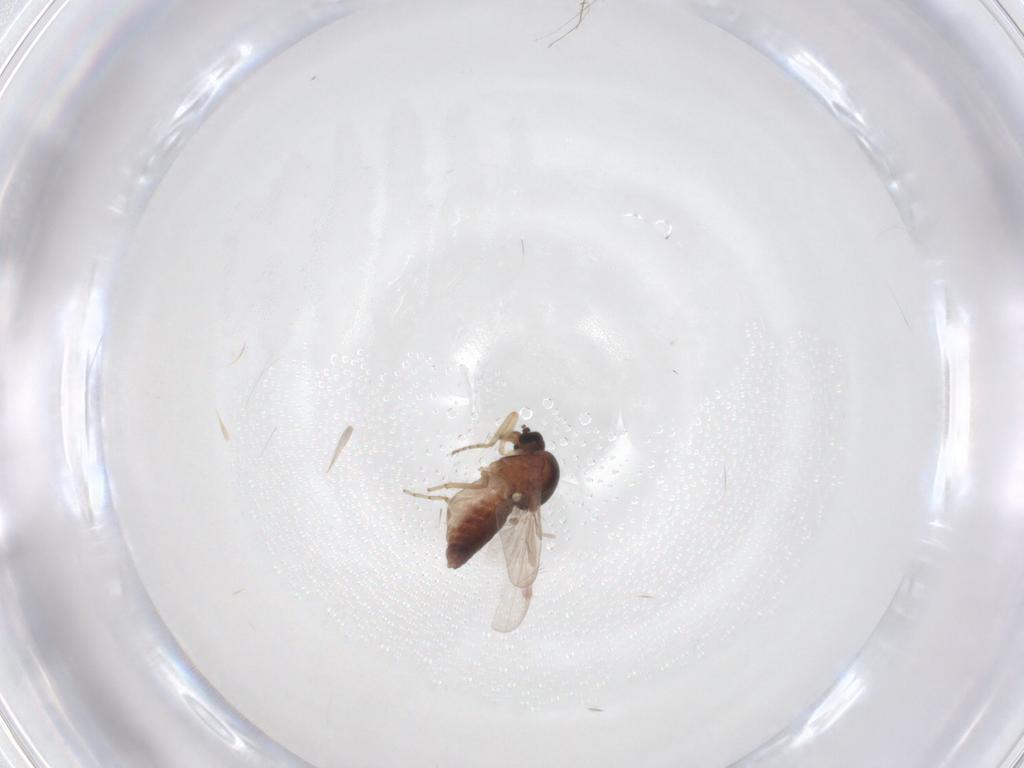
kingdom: Animalia
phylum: Arthropoda
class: Insecta
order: Diptera
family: Ceratopogonidae
